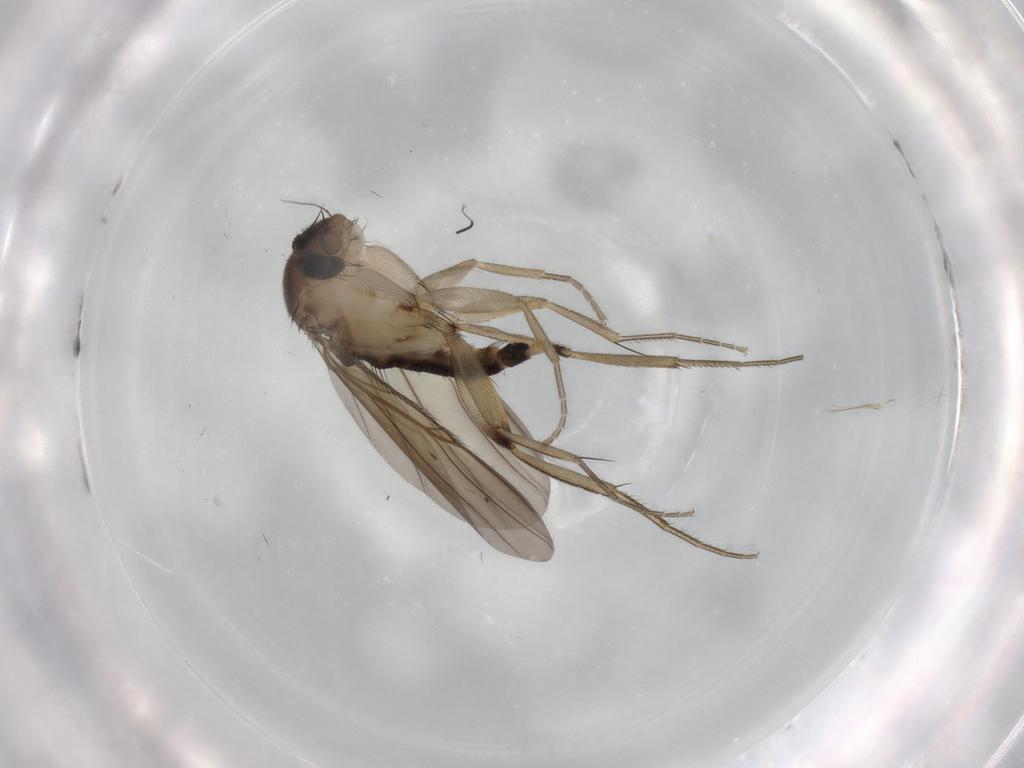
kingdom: Animalia
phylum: Arthropoda
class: Insecta
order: Diptera
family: Phoridae
